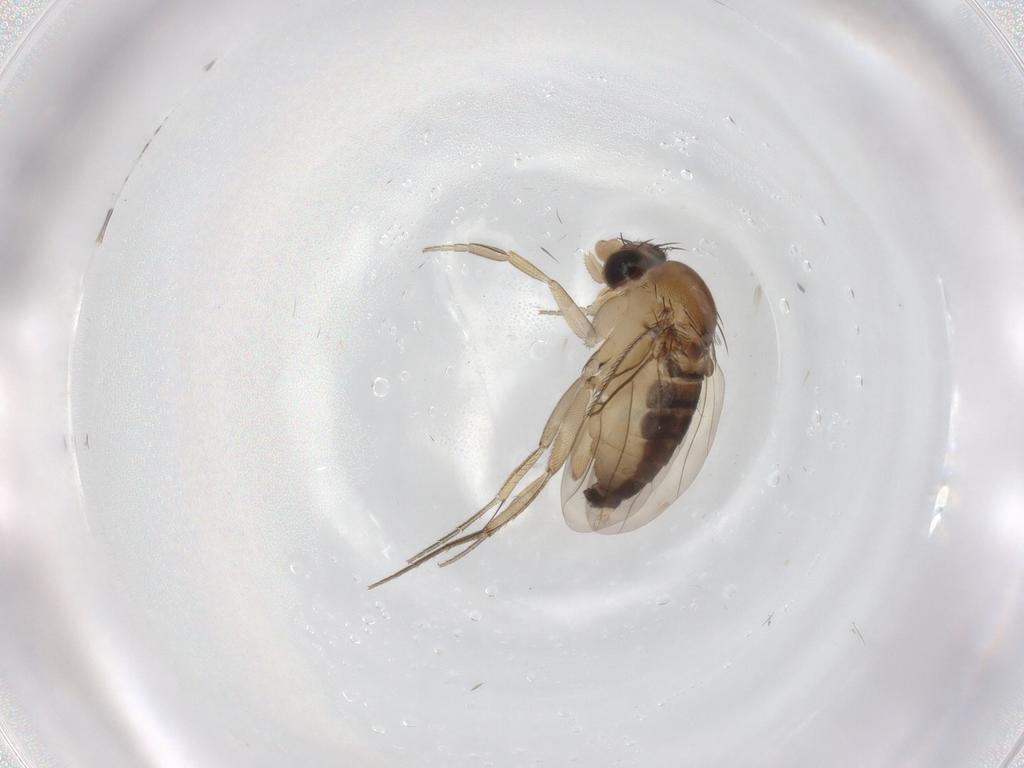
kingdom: Animalia
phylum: Arthropoda
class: Insecta
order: Diptera
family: Phoridae
